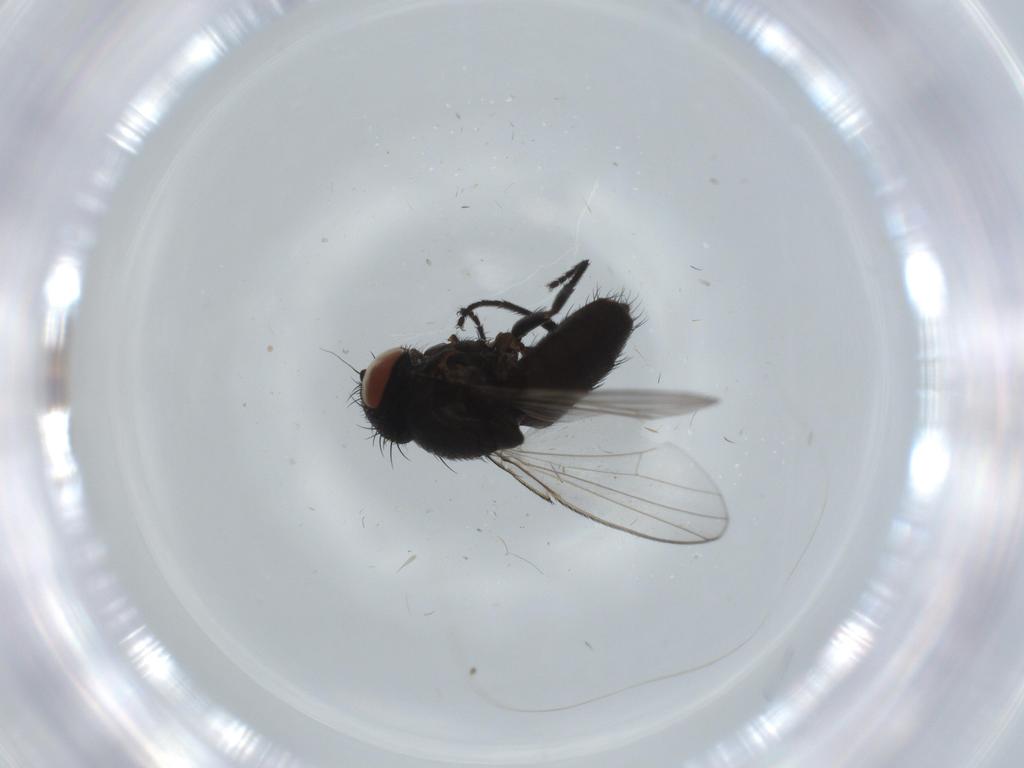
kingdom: Animalia
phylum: Arthropoda
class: Insecta
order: Diptera
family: Milichiidae
